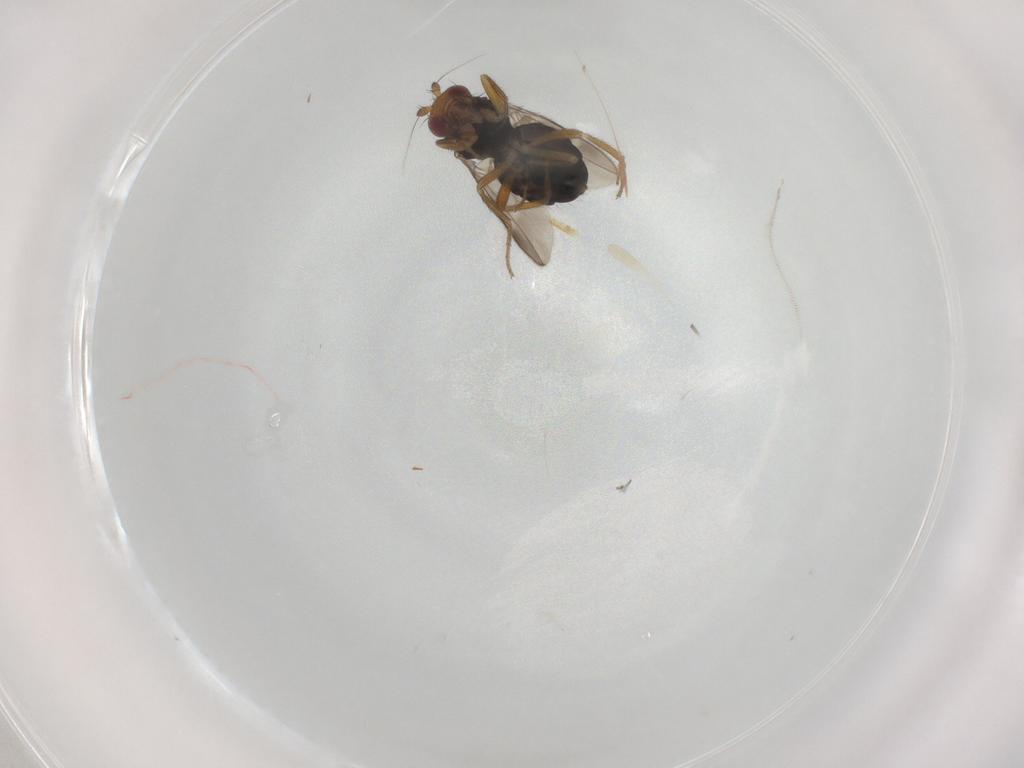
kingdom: Animalia
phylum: Arthropoda
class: Insecta
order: Diptera
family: Sphaeroceridae
